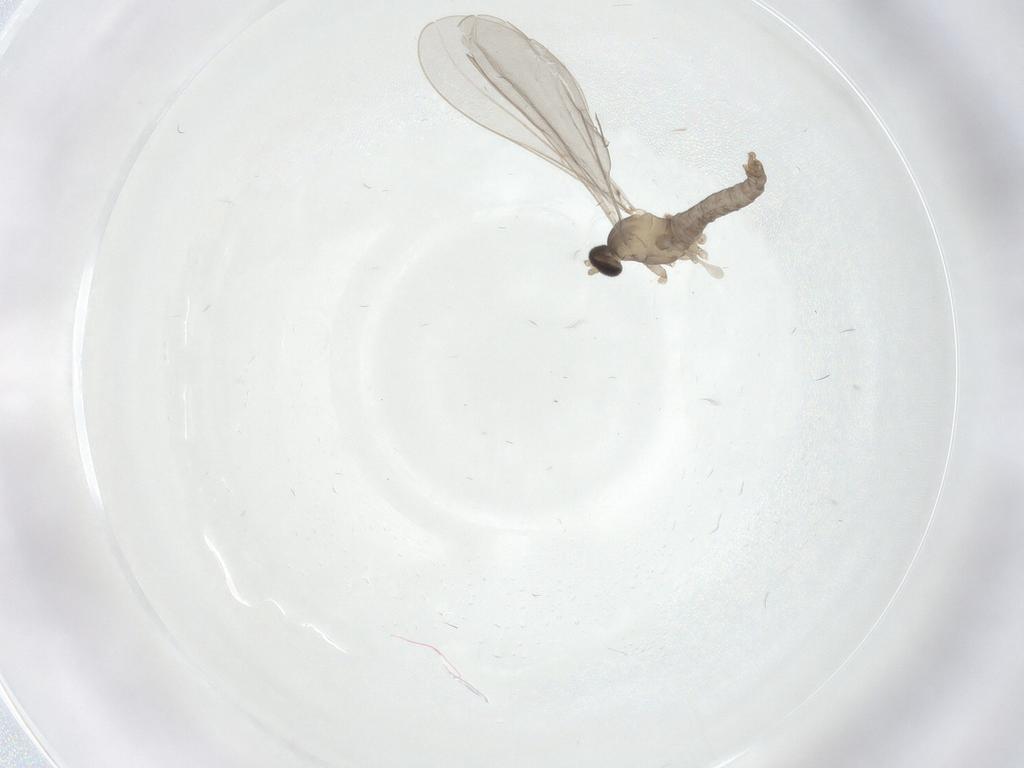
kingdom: Animalia
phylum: Arthropoda
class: Insecta
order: Diptera
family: Cecidomyiidae
